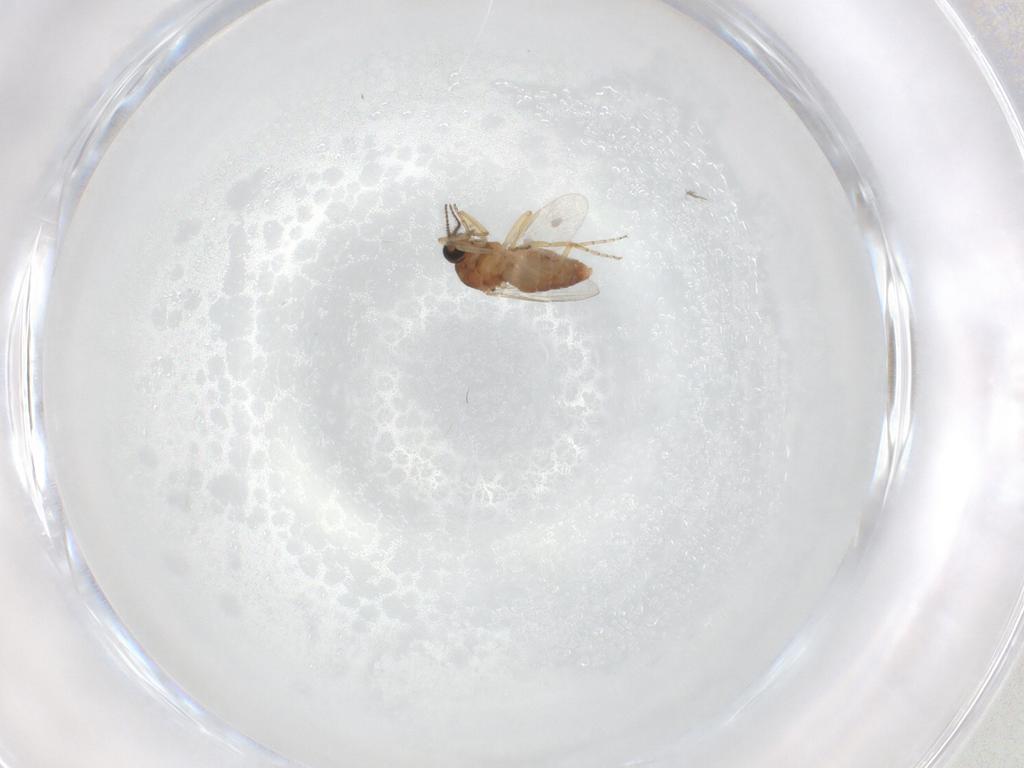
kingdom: Animalia
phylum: Arthropoda
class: Insecta
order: Diptera
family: Ceratopogonidae
